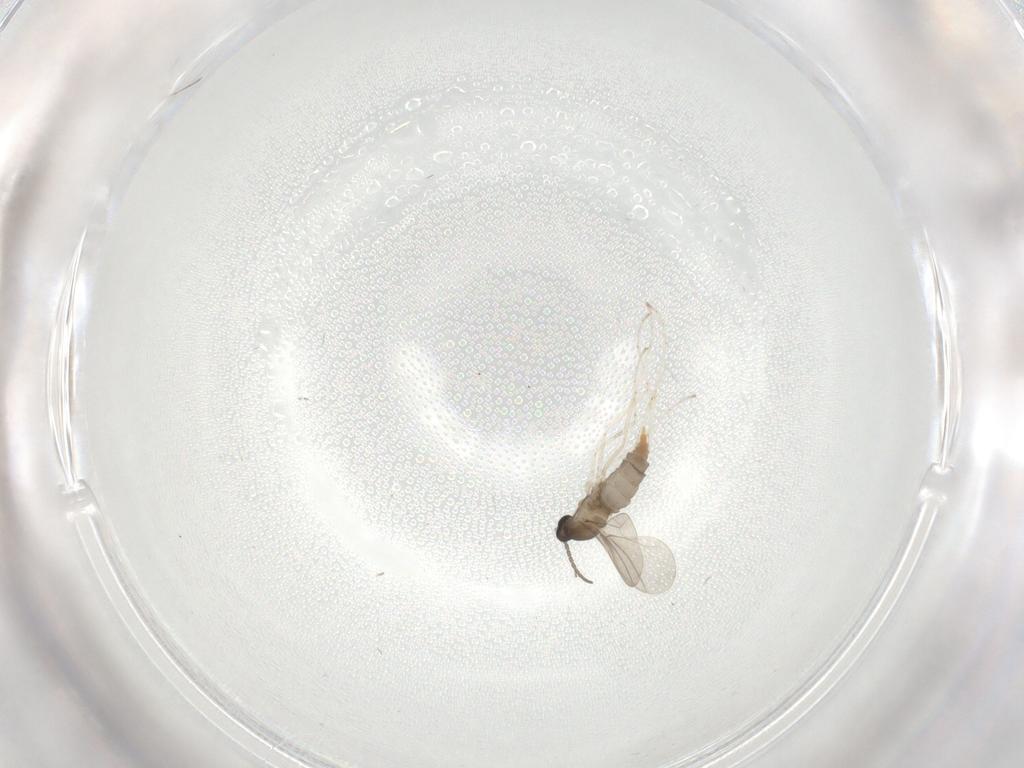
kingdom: Animalia
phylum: Arthropoda
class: Insecta
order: Diptera
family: Cecidomyiidae
